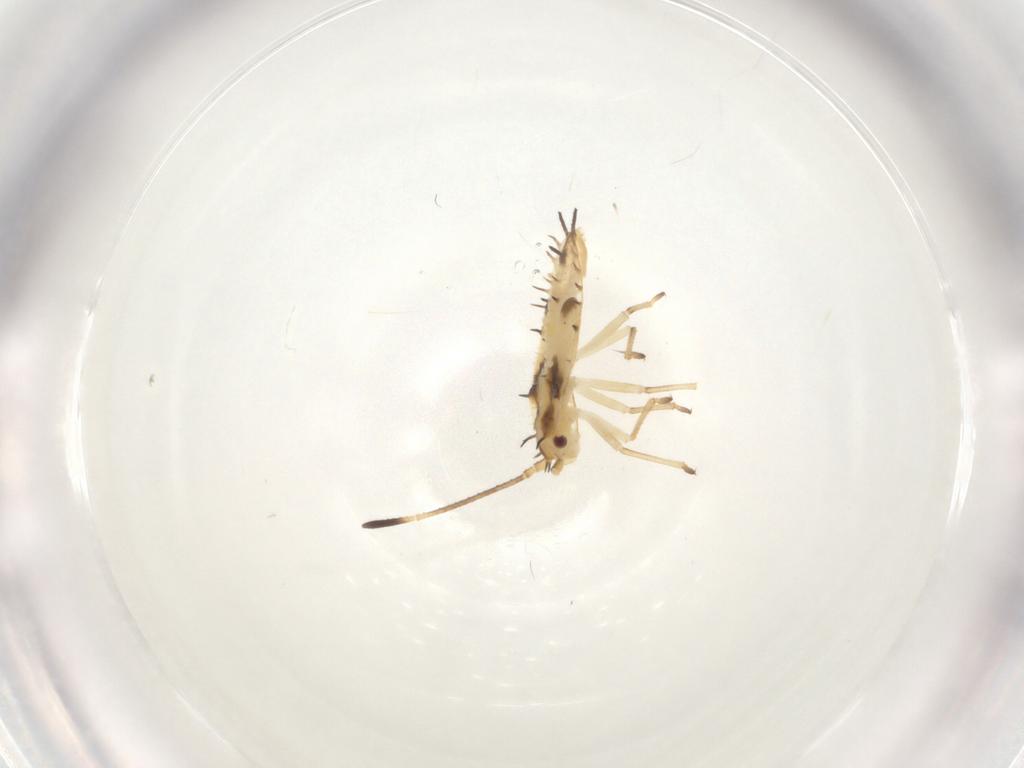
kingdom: Animalia
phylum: Arthropoda
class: Insecta
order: Hemiptera
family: Tingidae
